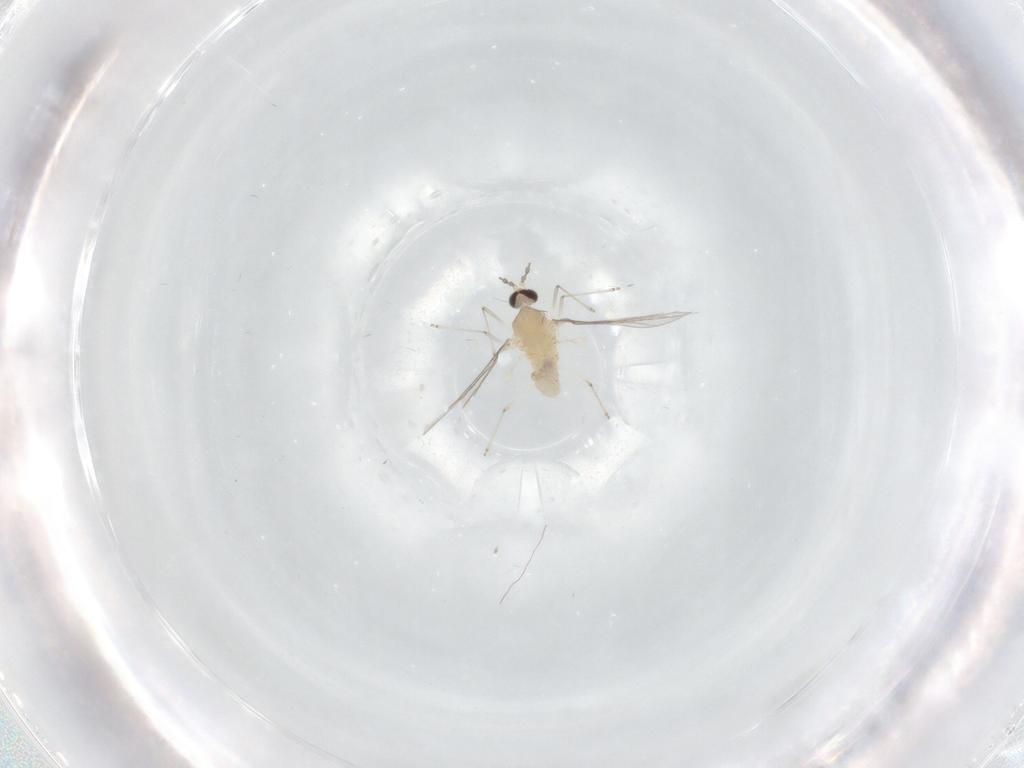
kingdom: Animalia
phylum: Arthropoda
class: Insecta
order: Diptera
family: Cecidomyiidae
